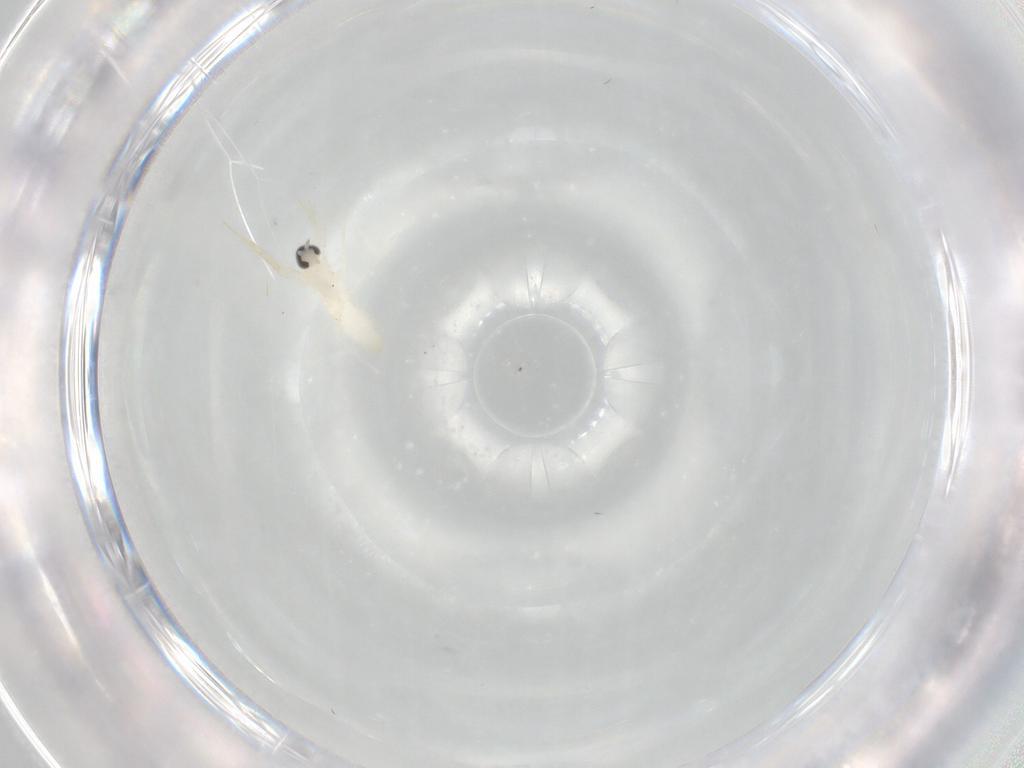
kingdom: Animalia
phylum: Arthropoda
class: Insecta
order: Diptera
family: Cecidomyiidae
